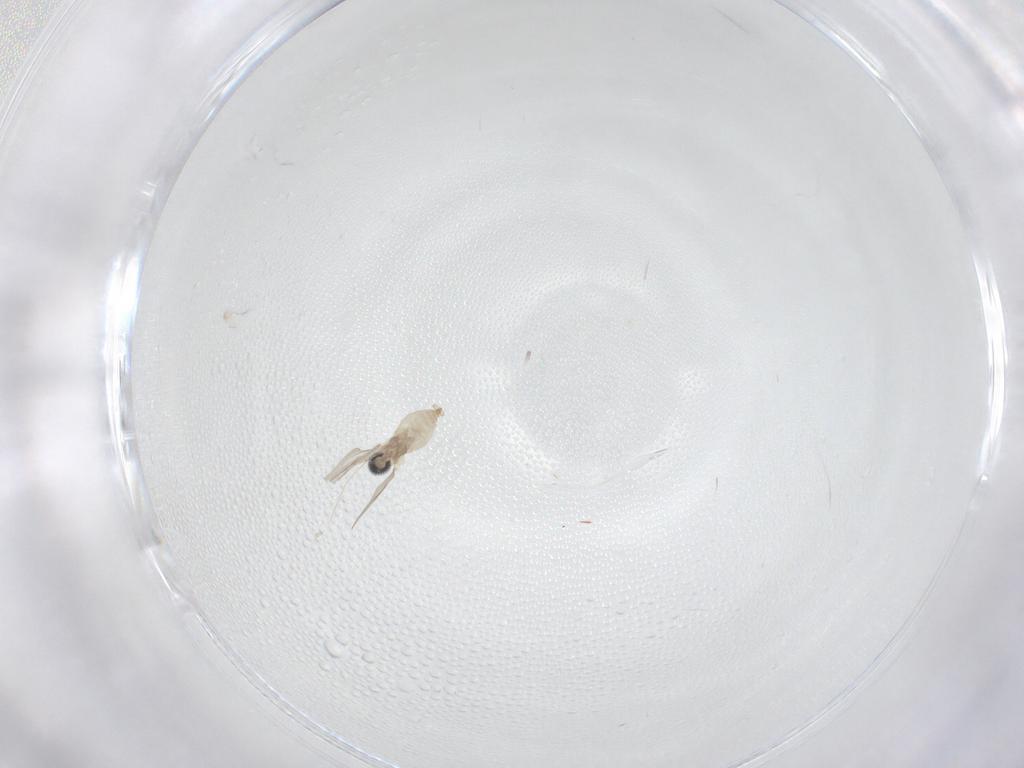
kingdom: Animalia
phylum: Arthropoda
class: Insecta
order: Diptera
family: Cecidomyiidae
